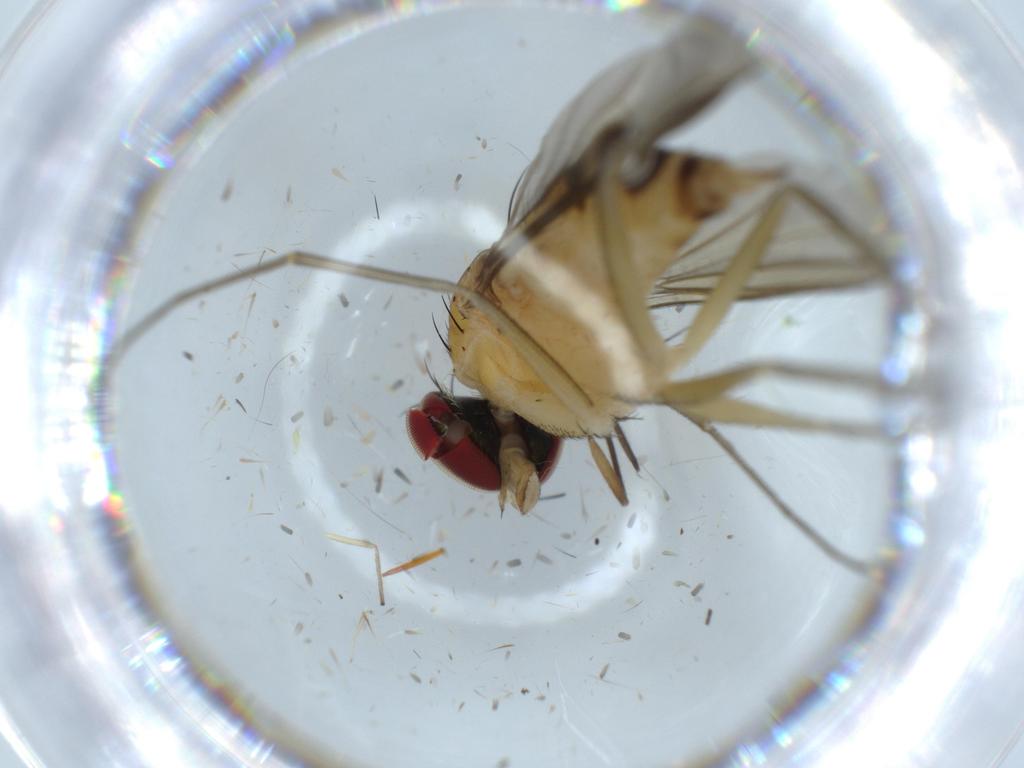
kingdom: Animalia
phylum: Arthropoda
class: Insecta
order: Diptera
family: Dolichopodidae
